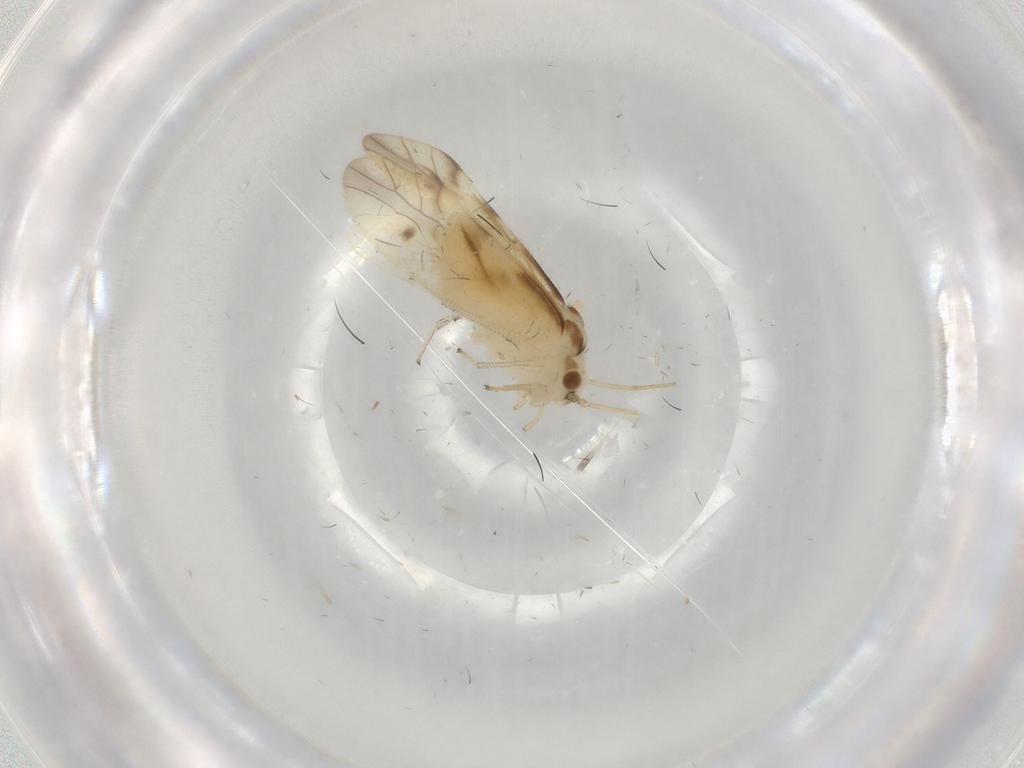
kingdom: Animalia
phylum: Arthropoda
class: Insecta
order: Psocodea
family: Caeciliusidae
